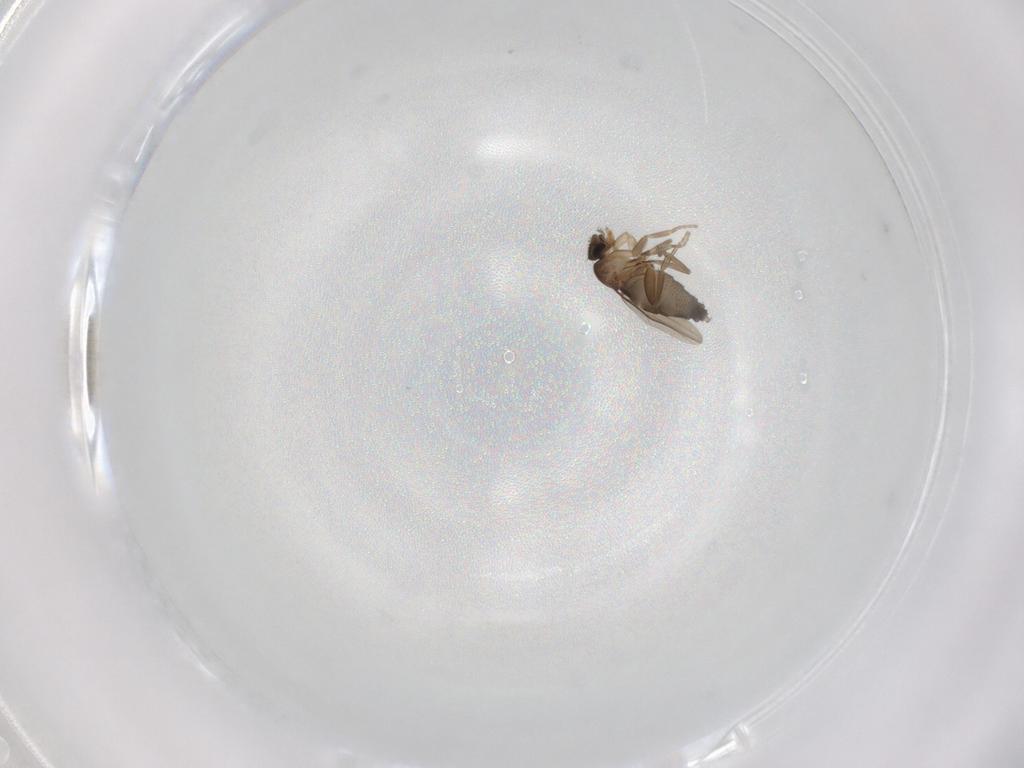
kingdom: Animalia
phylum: Arthropoda
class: Insecta
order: Diptera
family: Phoridae
